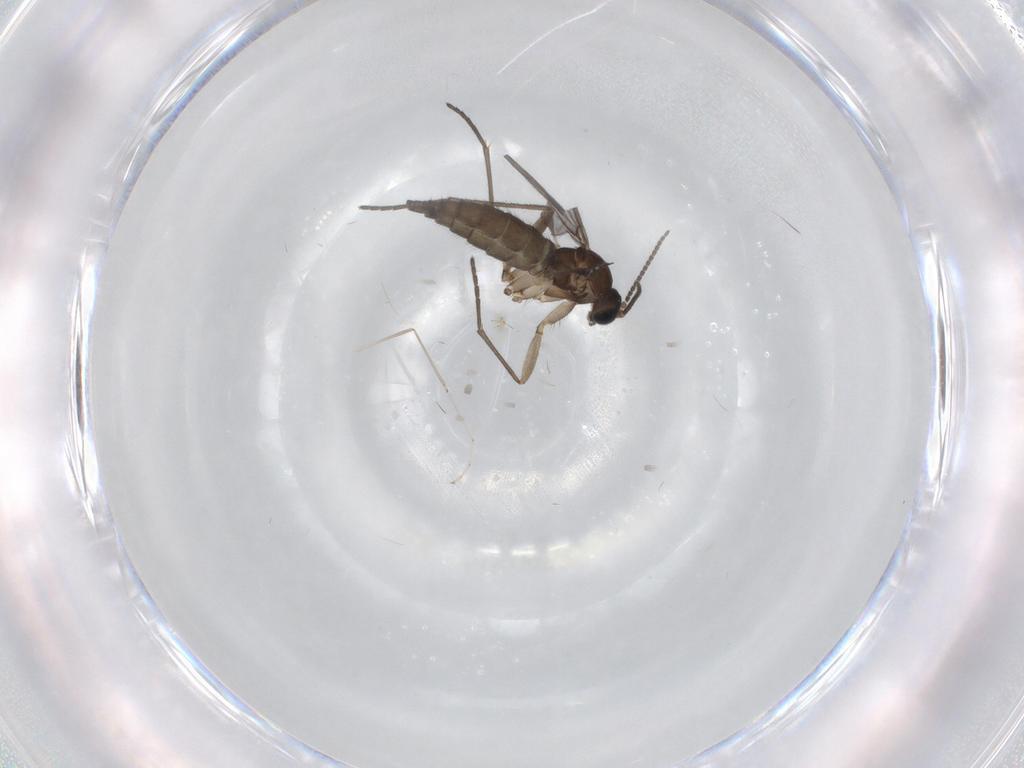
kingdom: Animalia
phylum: Arthropoda
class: Insecta
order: Diptera
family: Sciaridae
